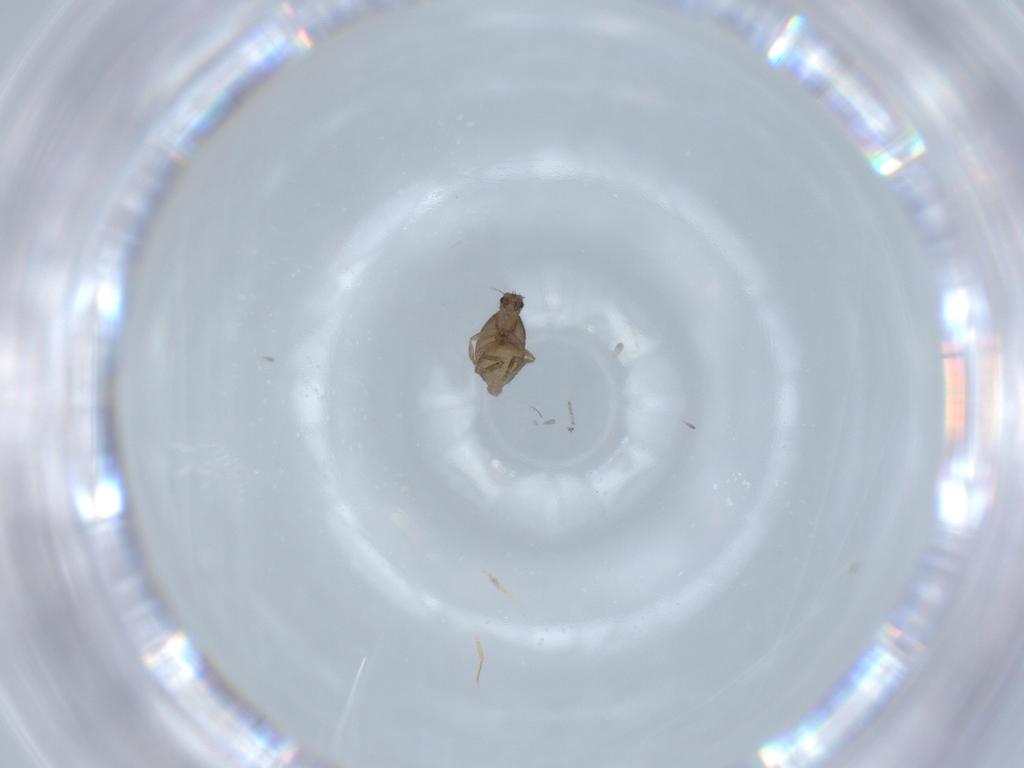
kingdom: Animalia
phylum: Arthropoda
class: Insecta
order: Diptera
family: Phoridae
